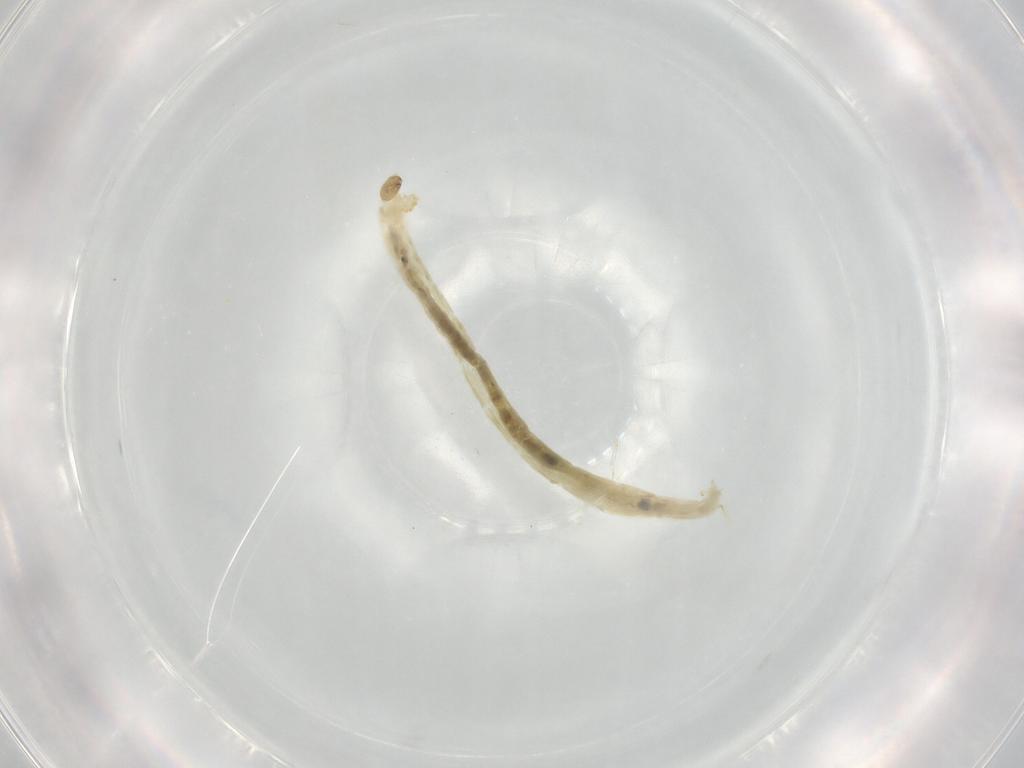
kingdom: Animalia
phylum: Arthropoda
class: Insecta
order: Diptera
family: Chironomidae
